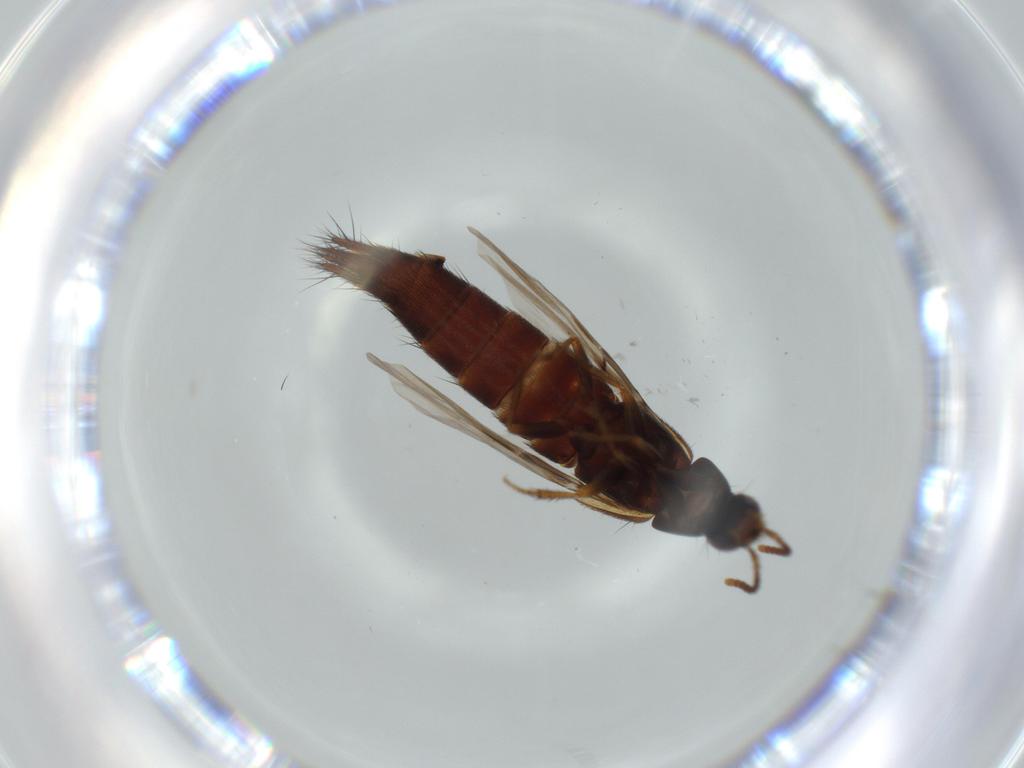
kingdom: Animalia
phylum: Arthropoda
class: Insecta
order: Coleoptera
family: Staphylinidae
